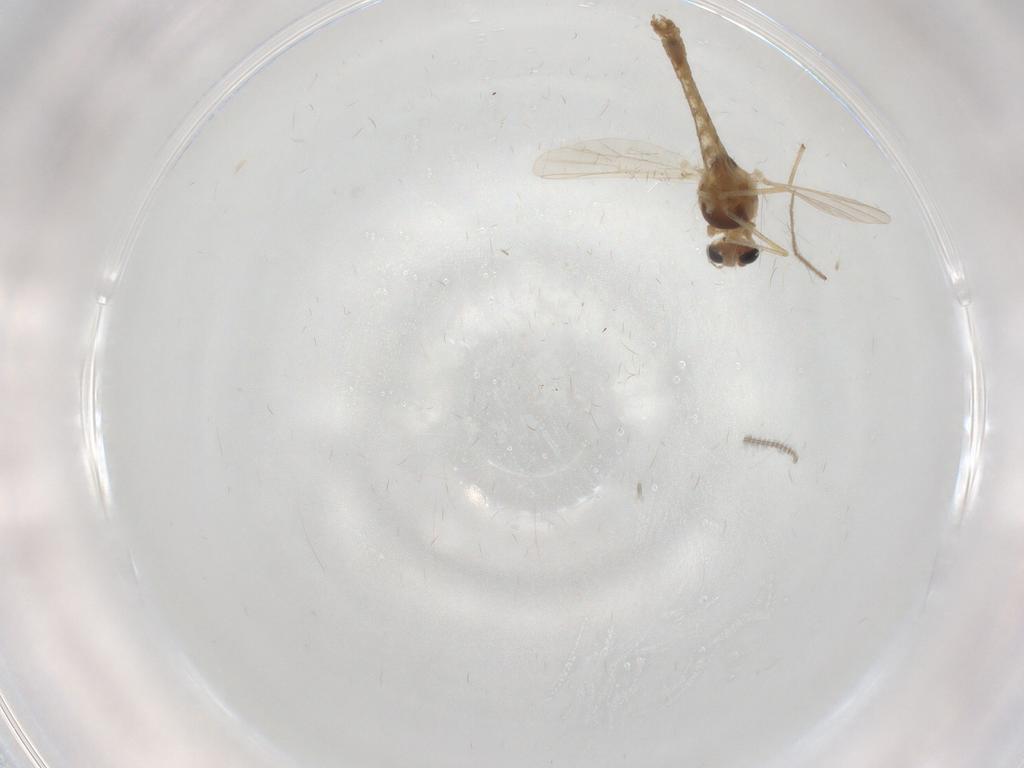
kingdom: Animalia
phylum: Arthropoda
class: Insecta
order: Diptera
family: Chironomidae
